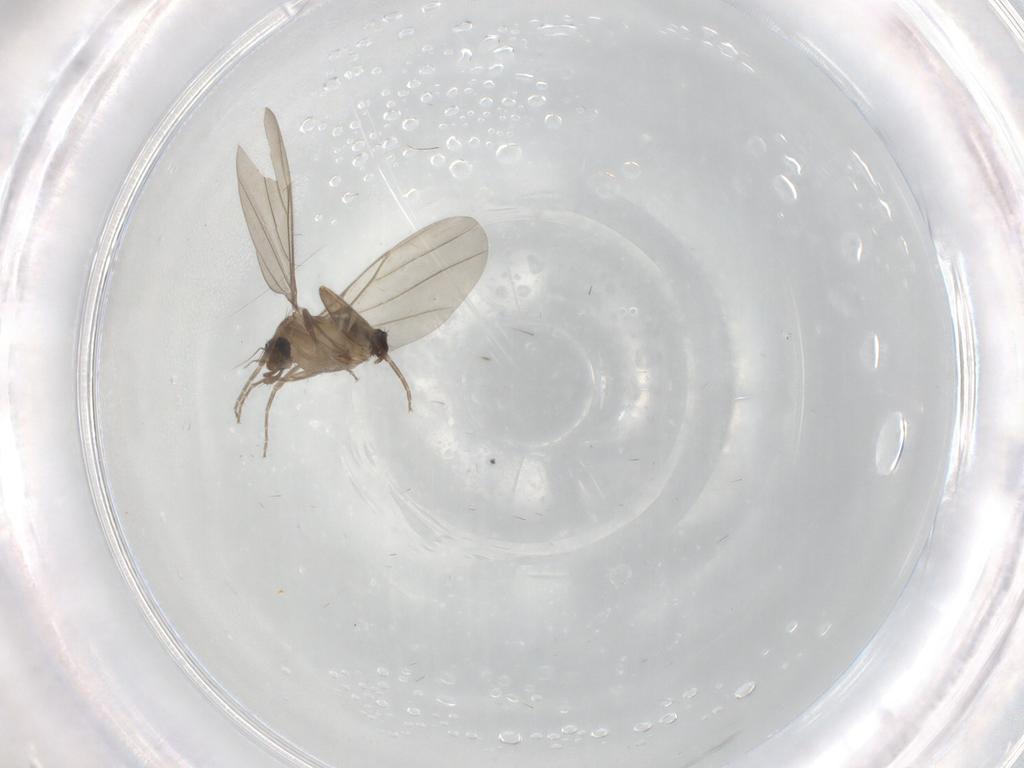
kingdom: Animalia
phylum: Arthropoda
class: Insecta
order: Diptera
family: Phoridae
